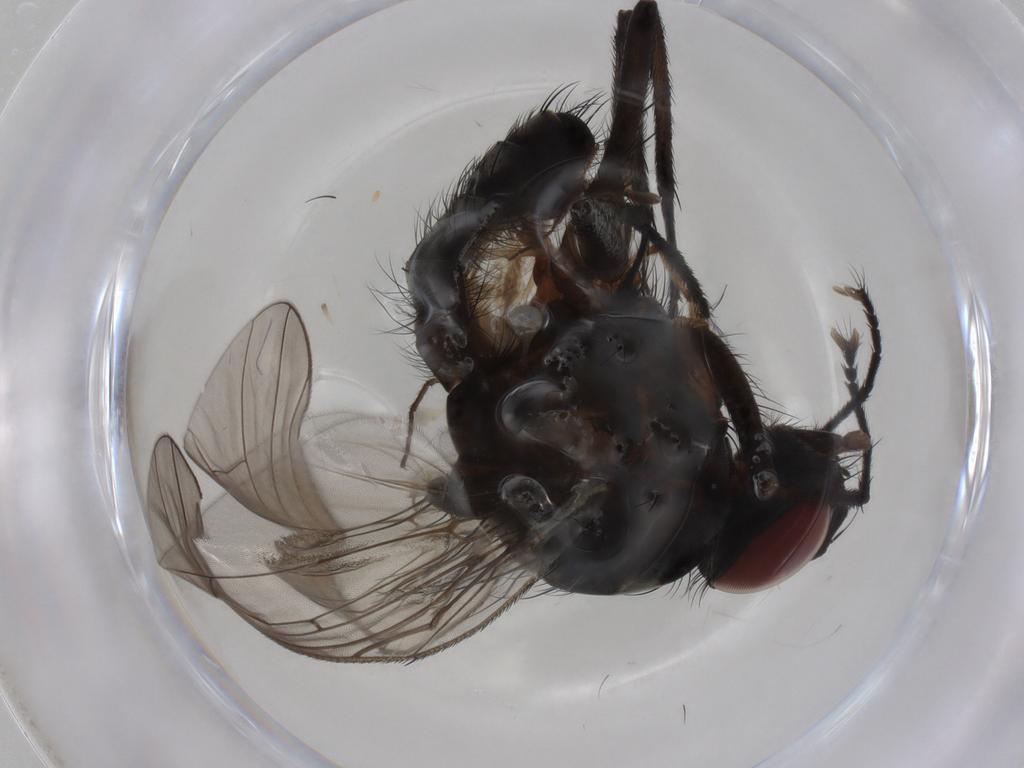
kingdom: Animalia
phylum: Arthropoda
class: Insecta
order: Diptera
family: Sciaridae
